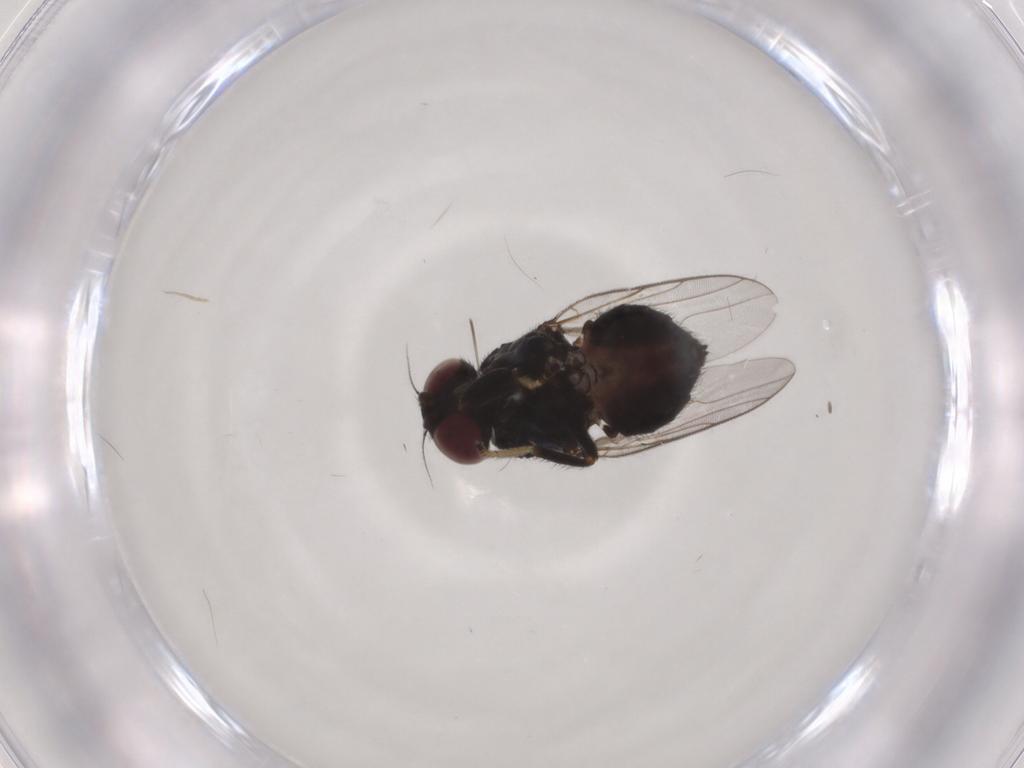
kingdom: Animalia
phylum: Arthropoda
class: Insecta
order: Diptera
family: Chloropidae
